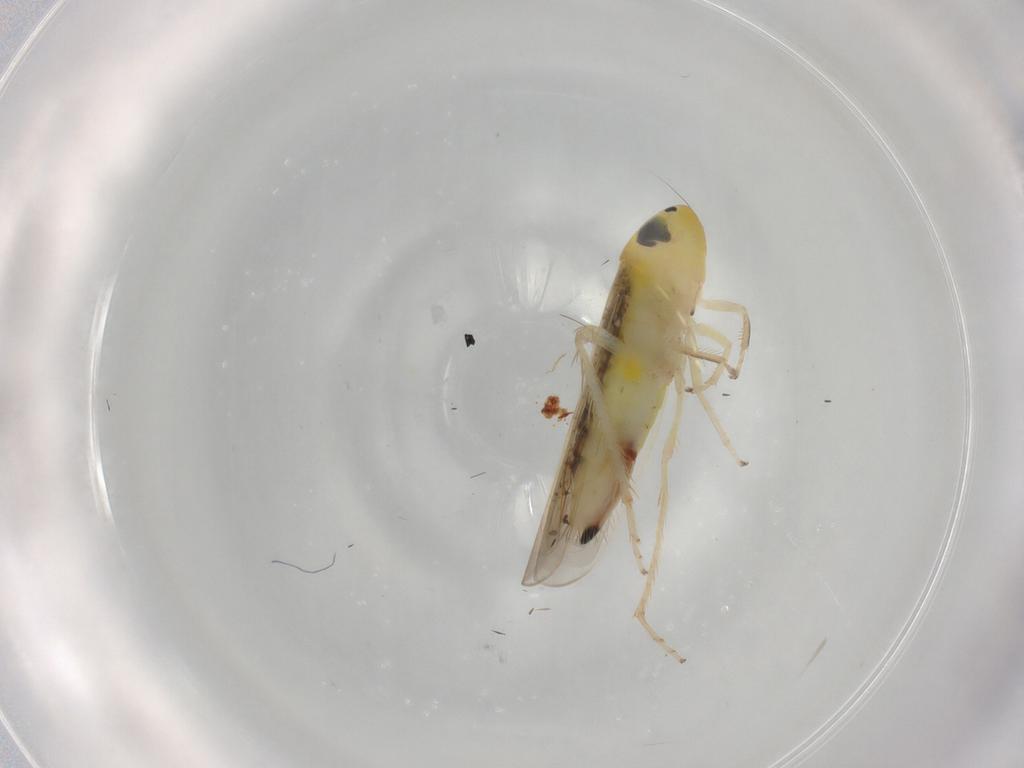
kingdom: Animalia
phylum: Arthropoda
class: Insecta
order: Hemiptera
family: Cicadellidae
